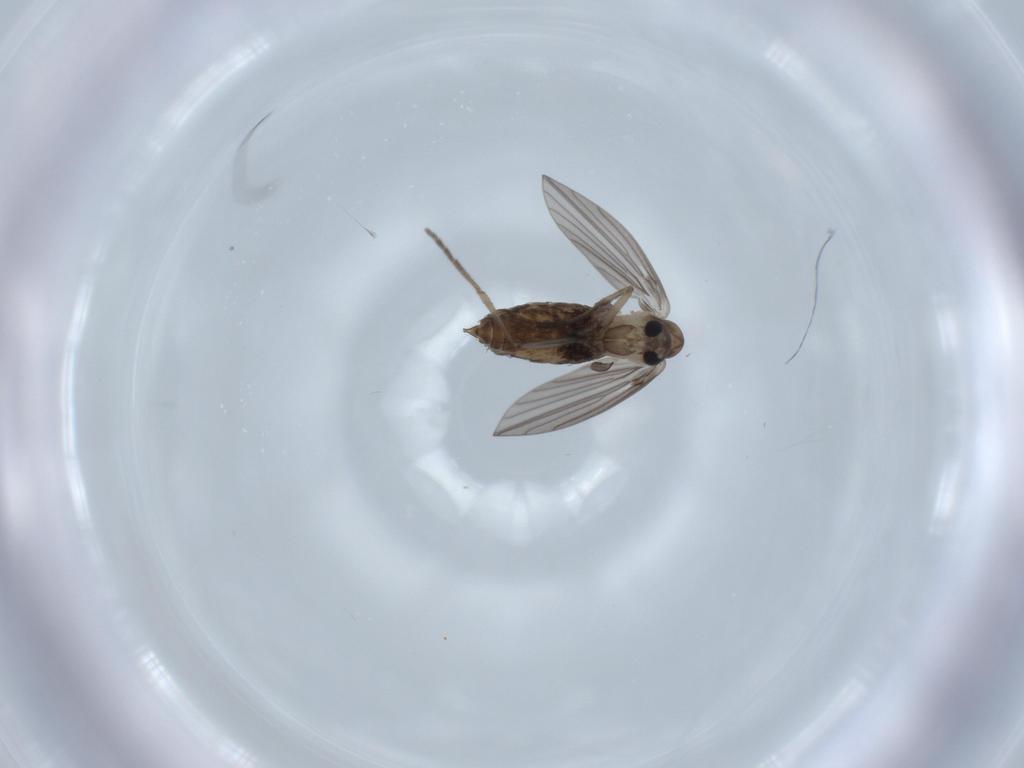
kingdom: Animalia
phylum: Arthropoda
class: Insecta
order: Diptera
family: Psychodidae
